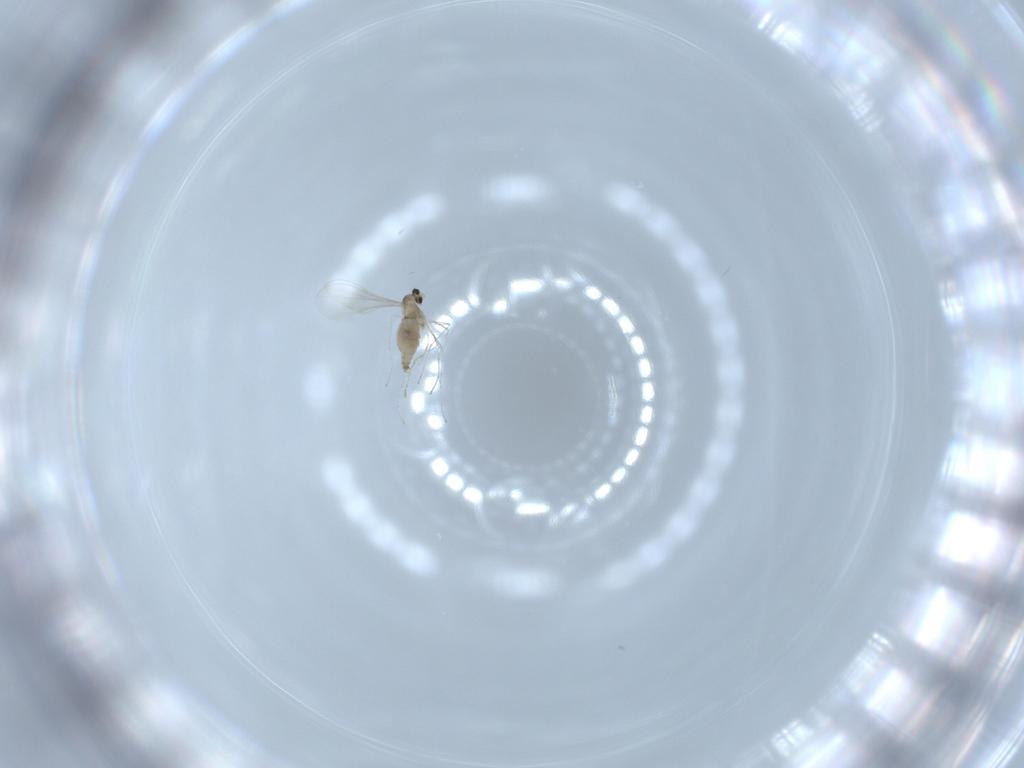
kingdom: Animalia
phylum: Arthropoda
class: Insecta
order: Diptera
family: Cecidomyiidae
